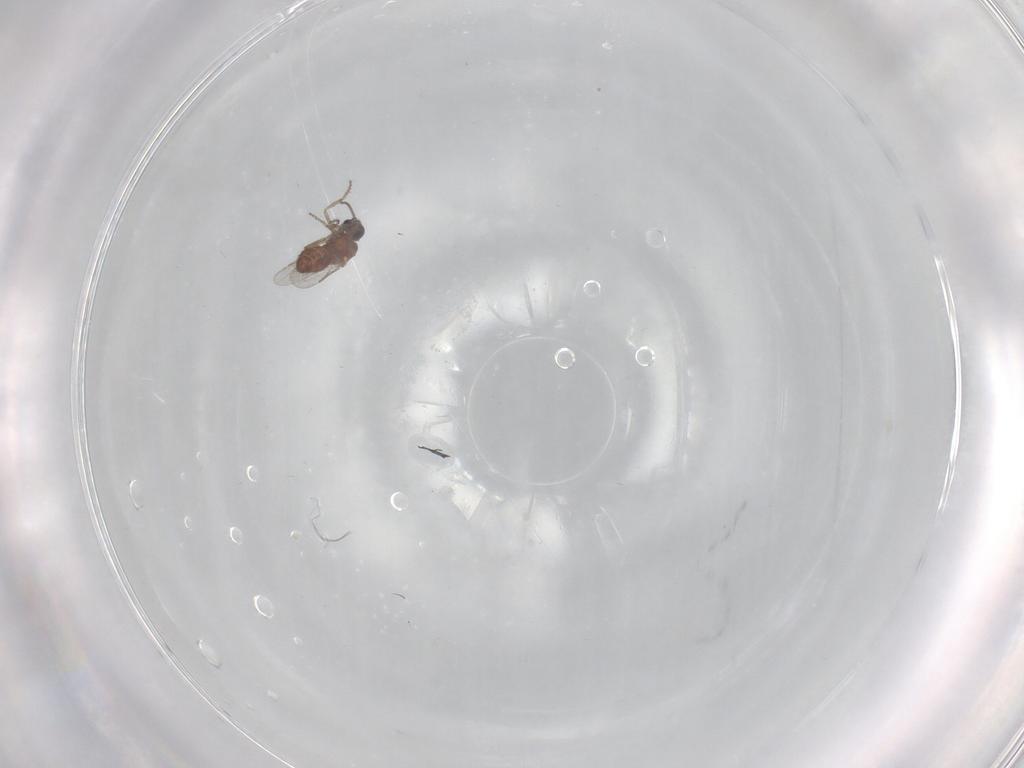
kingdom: Animalia
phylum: Arthropoda
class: Insecta
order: Diptera
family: Ceratopogonidae
